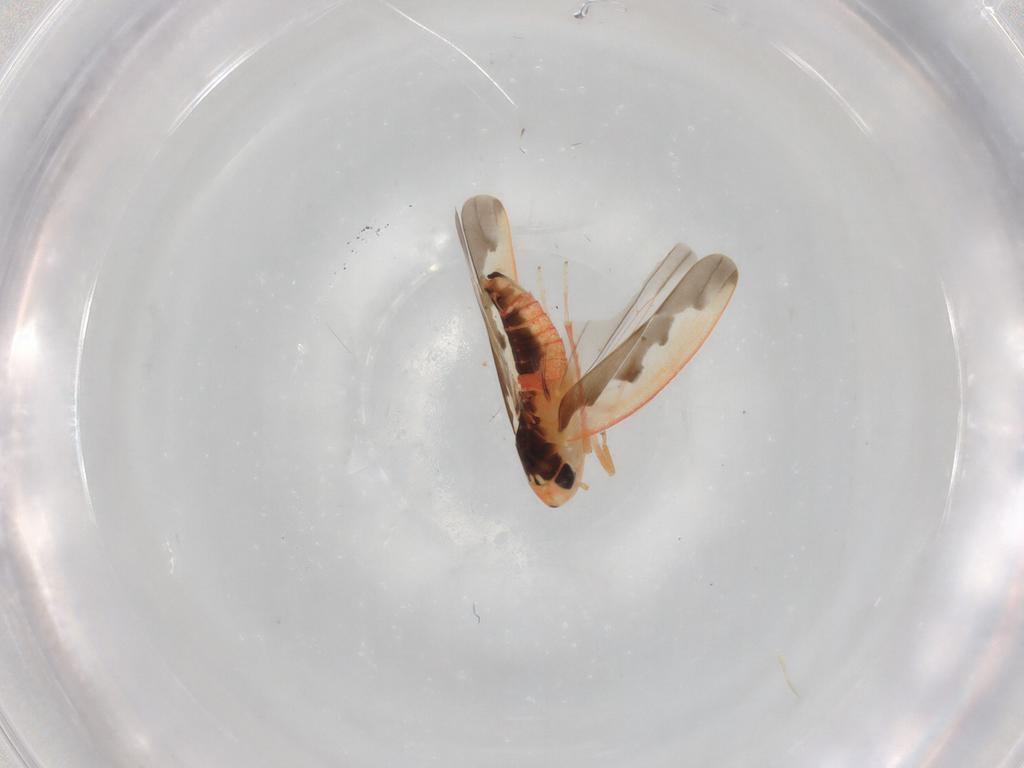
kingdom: Animalia
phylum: Arthropoda
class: Insecta
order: Hemiptera
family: Cicadellidae
